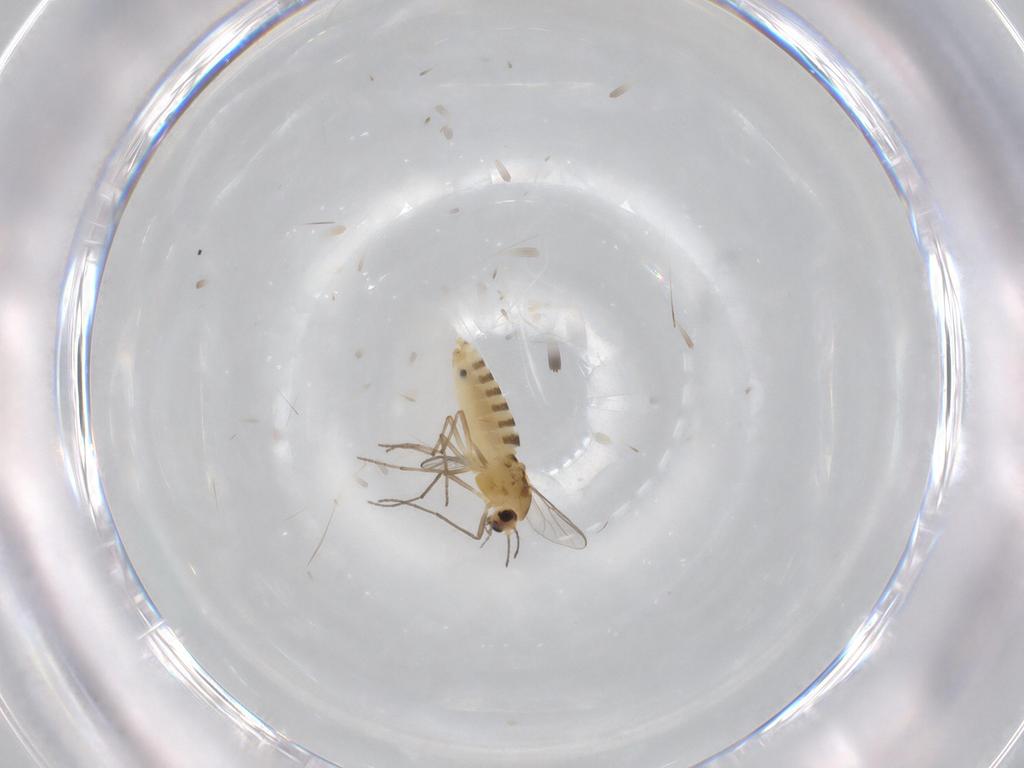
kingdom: Animalia
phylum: Arthropoda
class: Insecta
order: Diptera
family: Chironomidae
